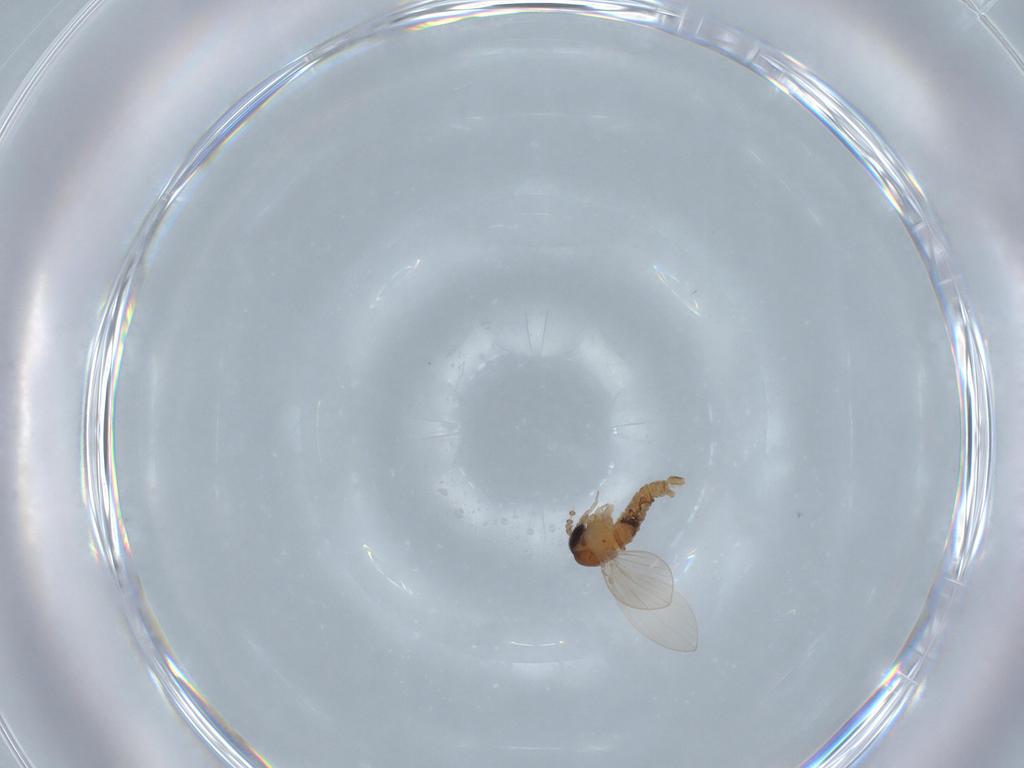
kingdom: Animalia
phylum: Arthropoda
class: Insecta
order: Diptera
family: Psychodidae
